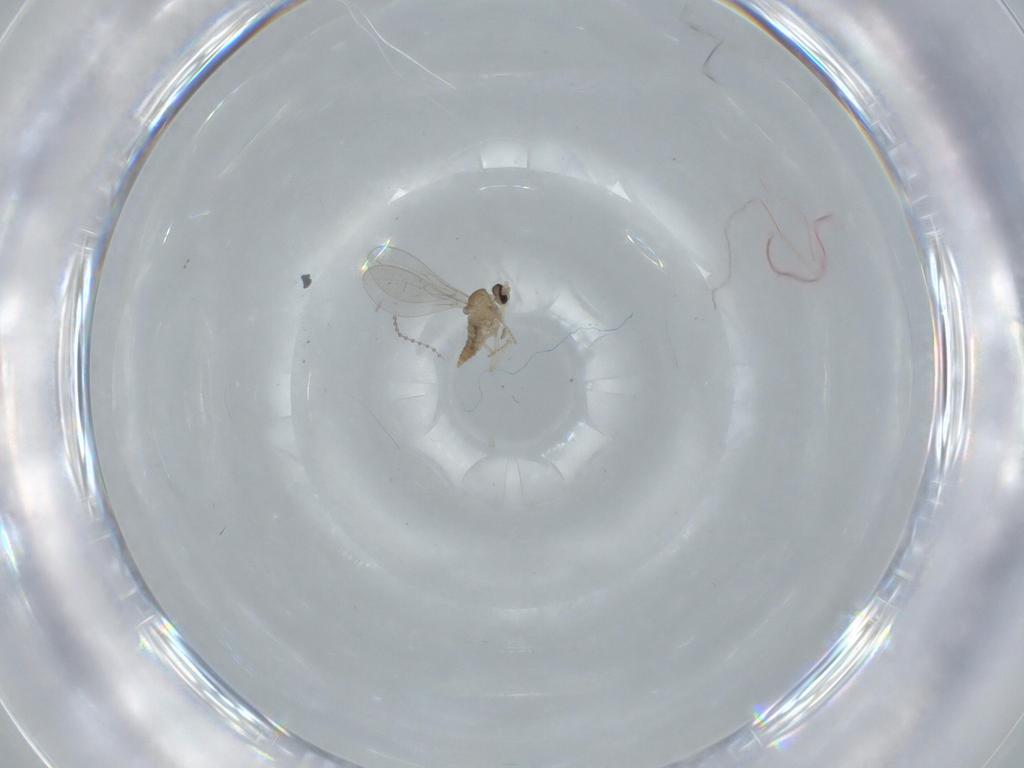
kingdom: Animalia
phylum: Arthropoda
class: Insecta
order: Diptera
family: Cecidomyiidae
